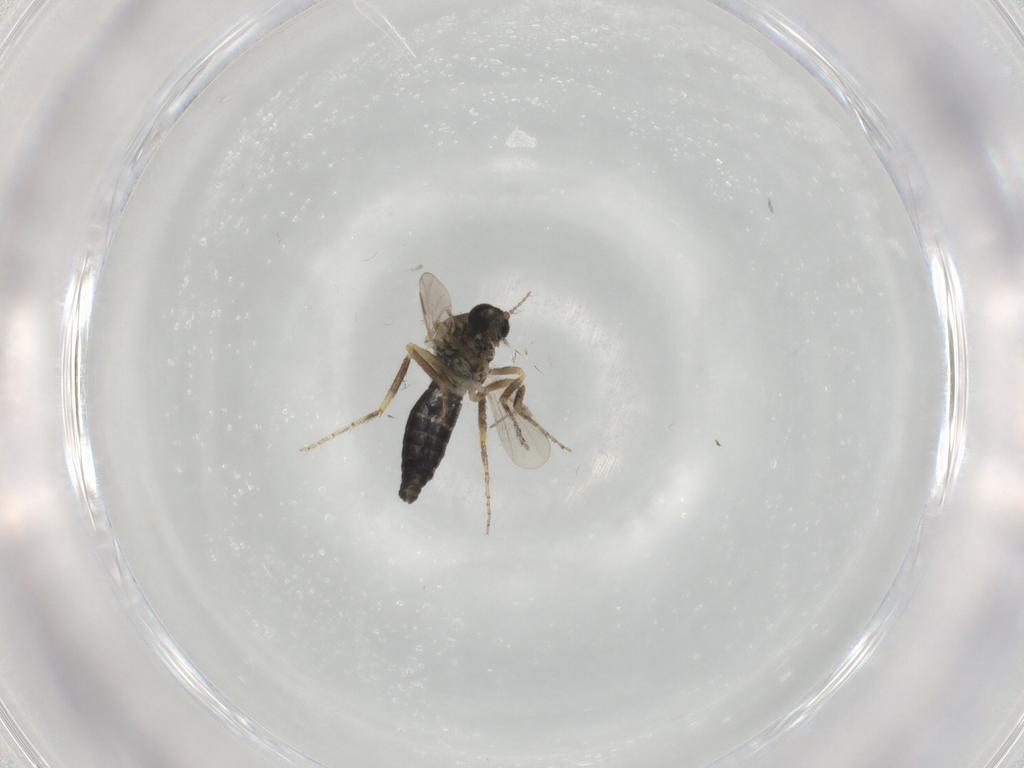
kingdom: Animalia
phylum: Arthropoda
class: Insecta
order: Diptera
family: Ceratopogonidae
